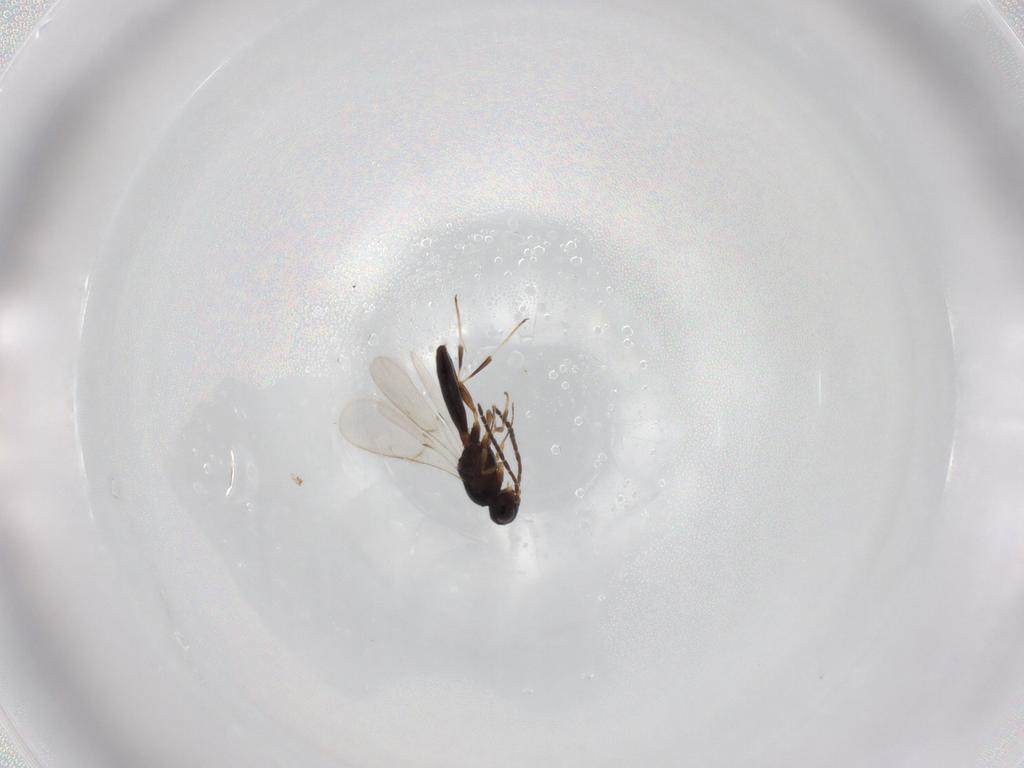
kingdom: Animalia
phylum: Arthropoda
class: Insecta
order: Hymenoptera
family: Scelionidae
